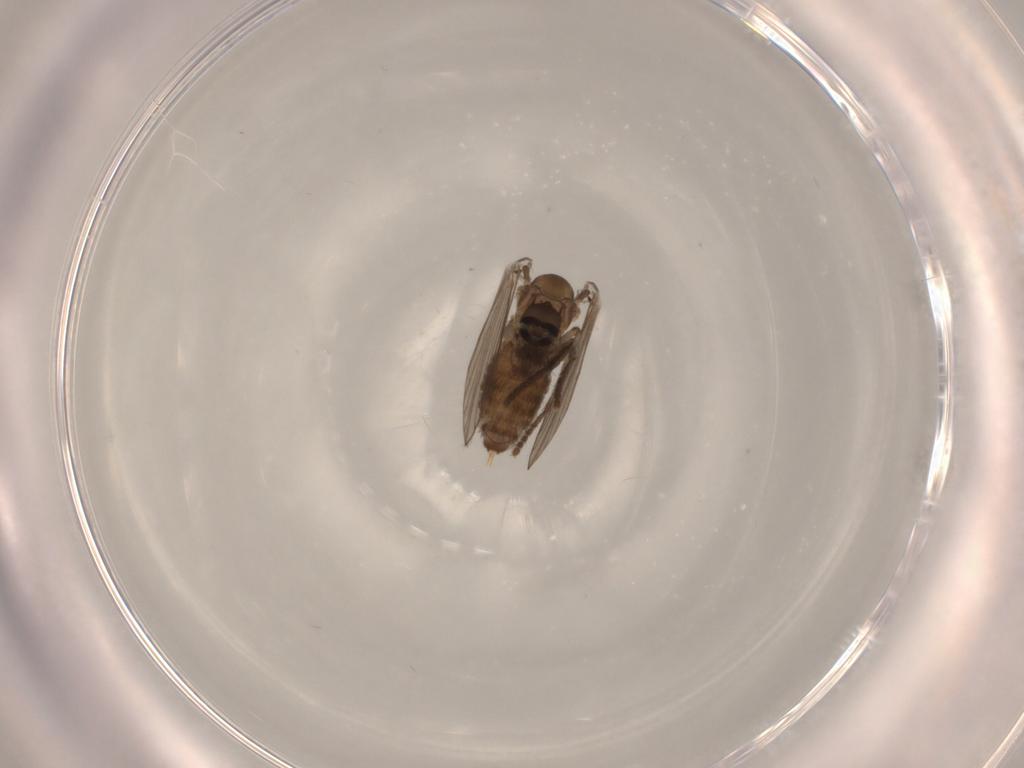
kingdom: Animalia
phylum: Arthropoda
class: Insecta
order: Diptera
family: Psychodidae
